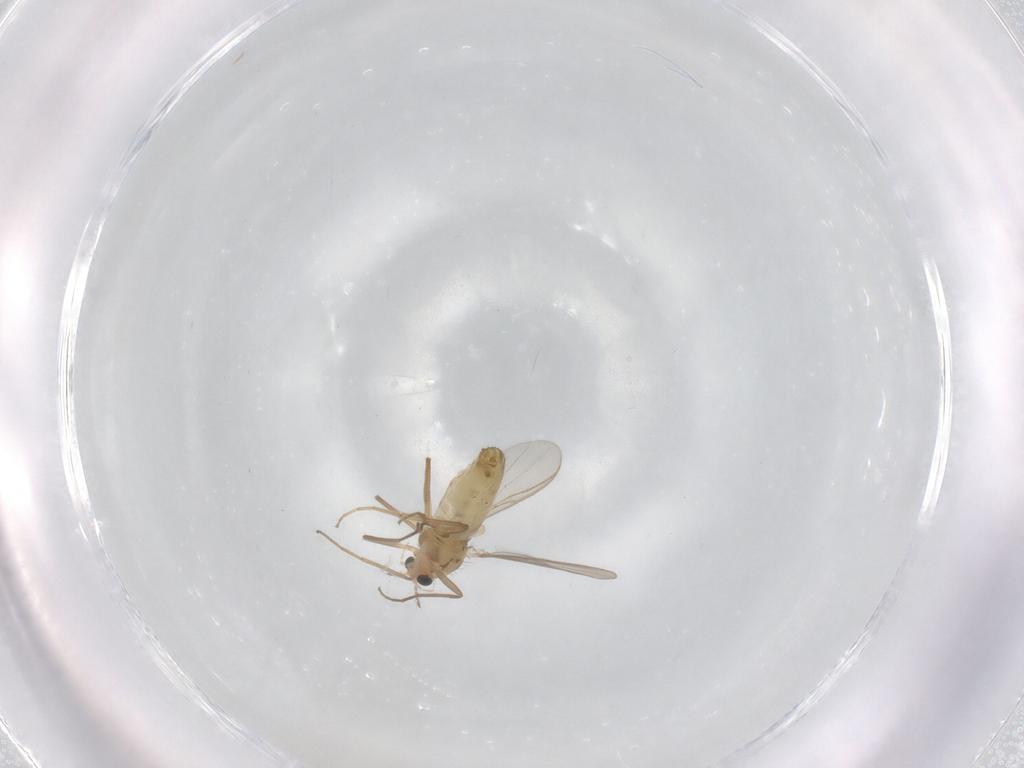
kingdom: Animalia
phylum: Arthropoda
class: Insecta
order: Diptera
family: Chironomidae
